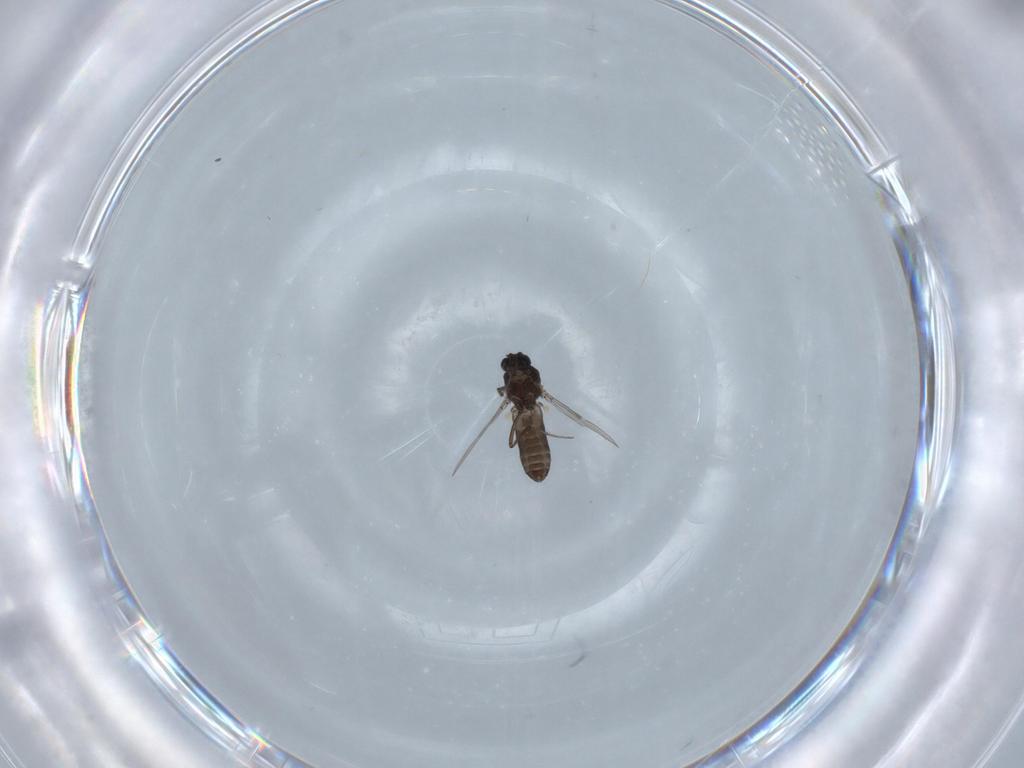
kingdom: Animalia
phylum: Arthropoda
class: Insecta
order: Diptera
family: Ceratopogonidae
